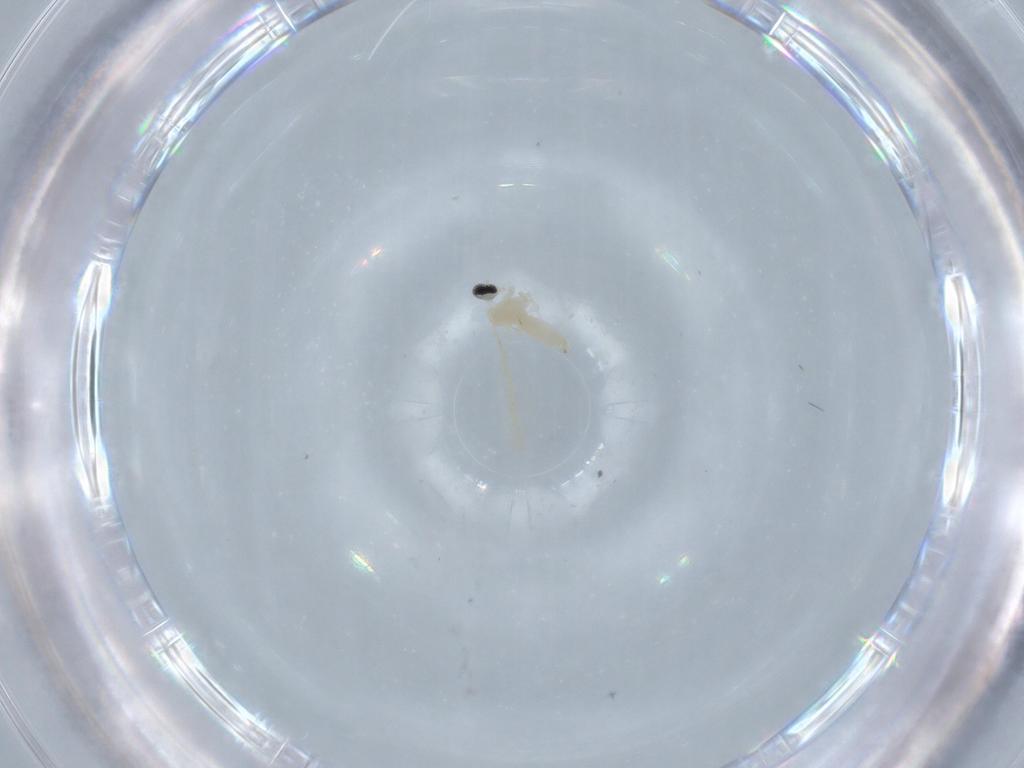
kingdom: Animalia
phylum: Arthropoda
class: Insecta
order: Diptera
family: Cecidomyiidae
